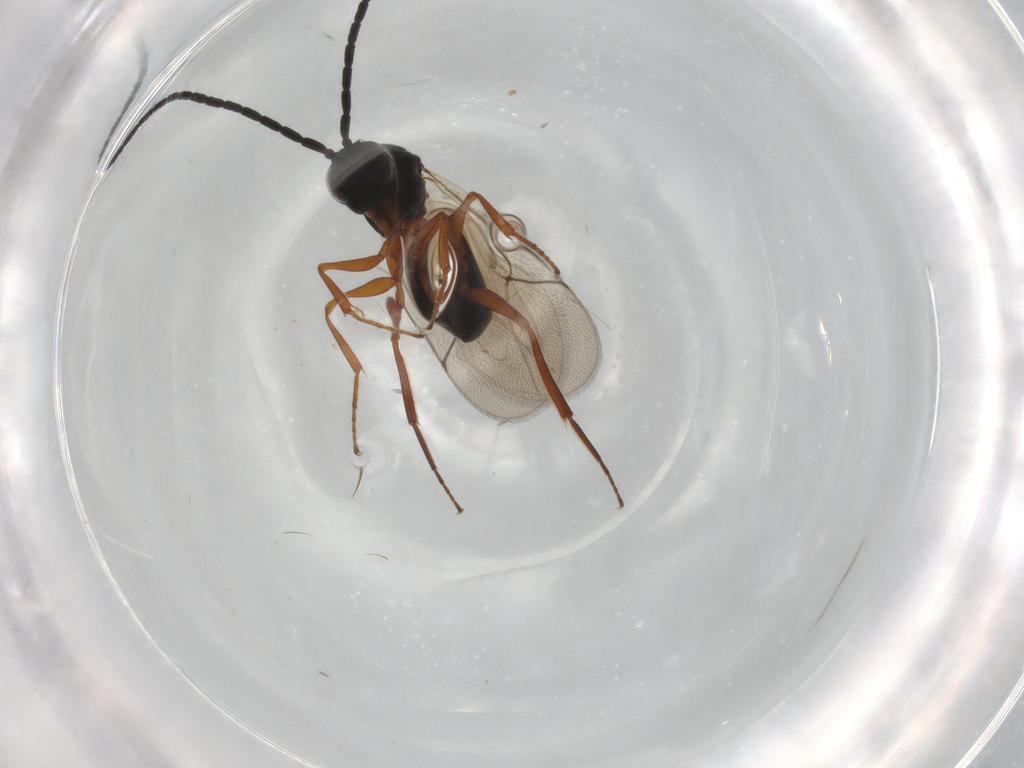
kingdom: Animalia
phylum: Arthropoda
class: Insecta
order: Hymenoptera
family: Figitidae
